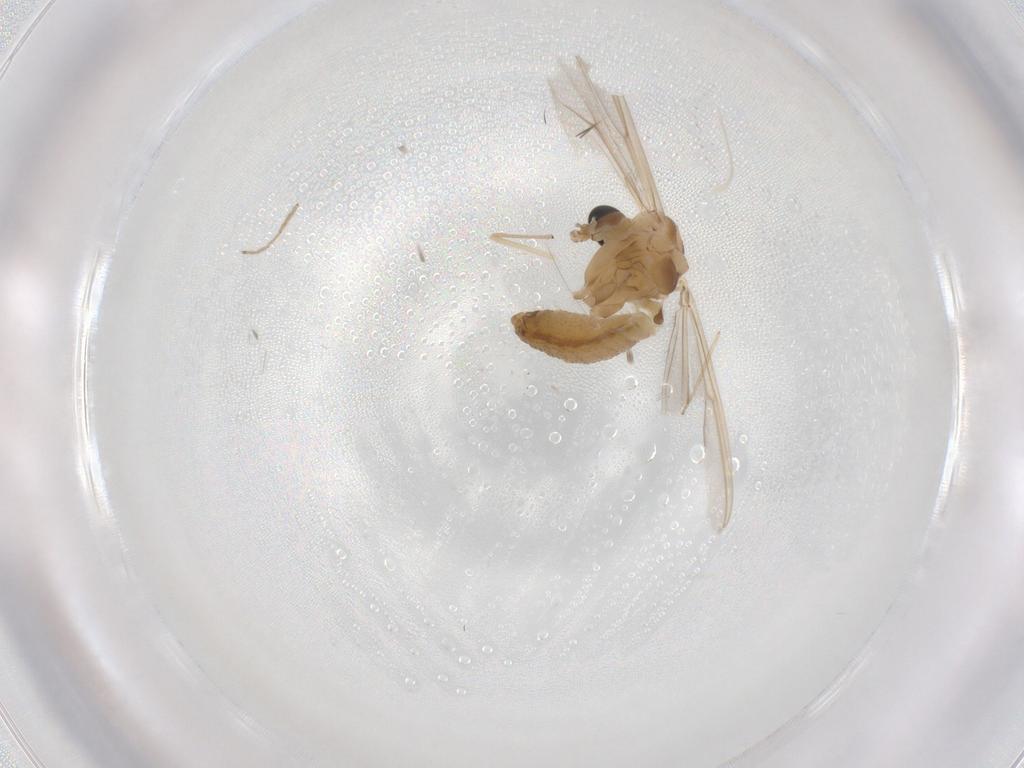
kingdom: Animalia
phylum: Arthropoda
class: Insecta
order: Diptera
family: Chironomidae
